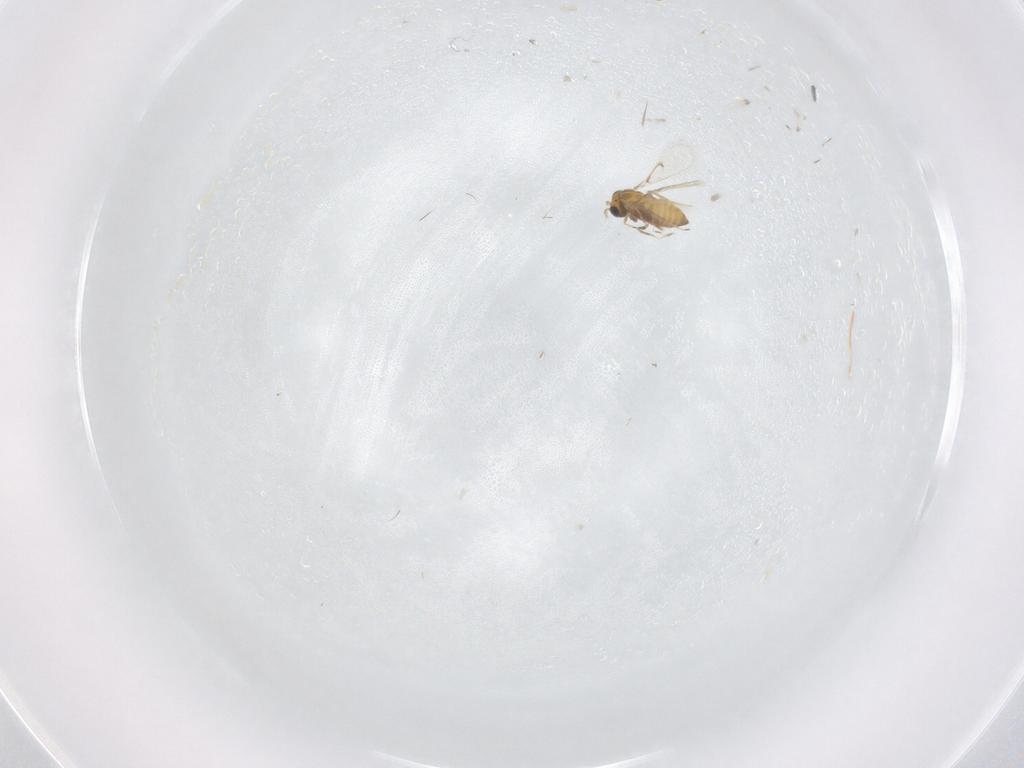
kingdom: Animalia
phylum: Arthropoda
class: Insecta
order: Hymenoptera
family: Trichogrammatidae
